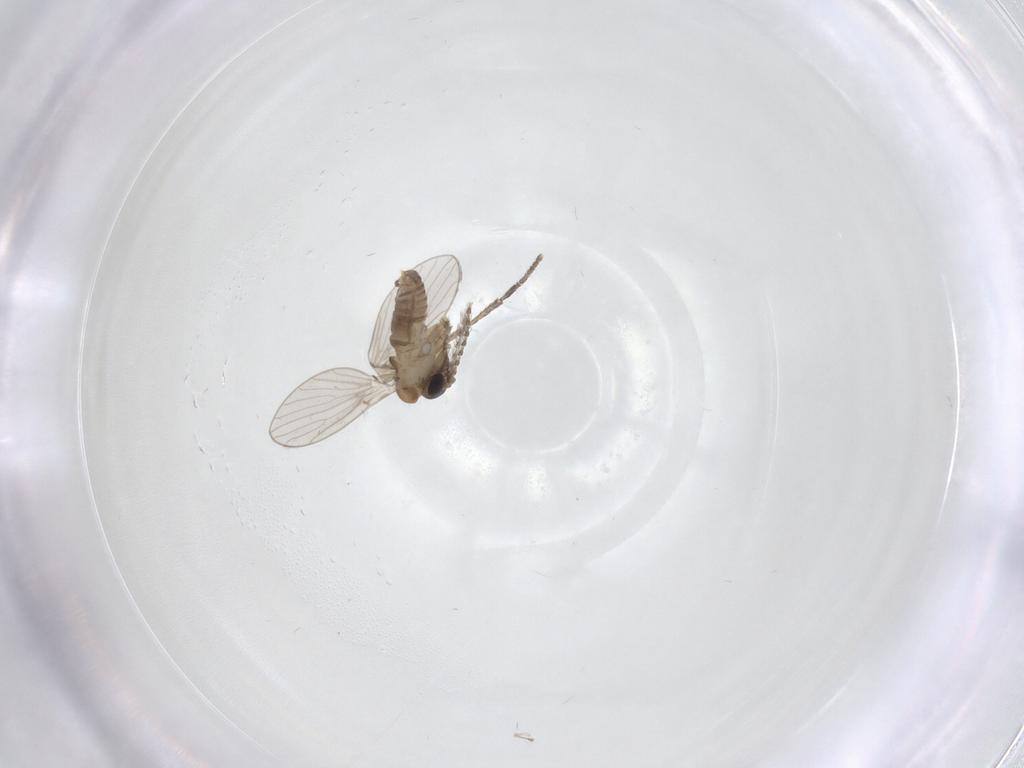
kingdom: Animalia
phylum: Arthropoda
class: Insecta
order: Diptera
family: Psychodidae
